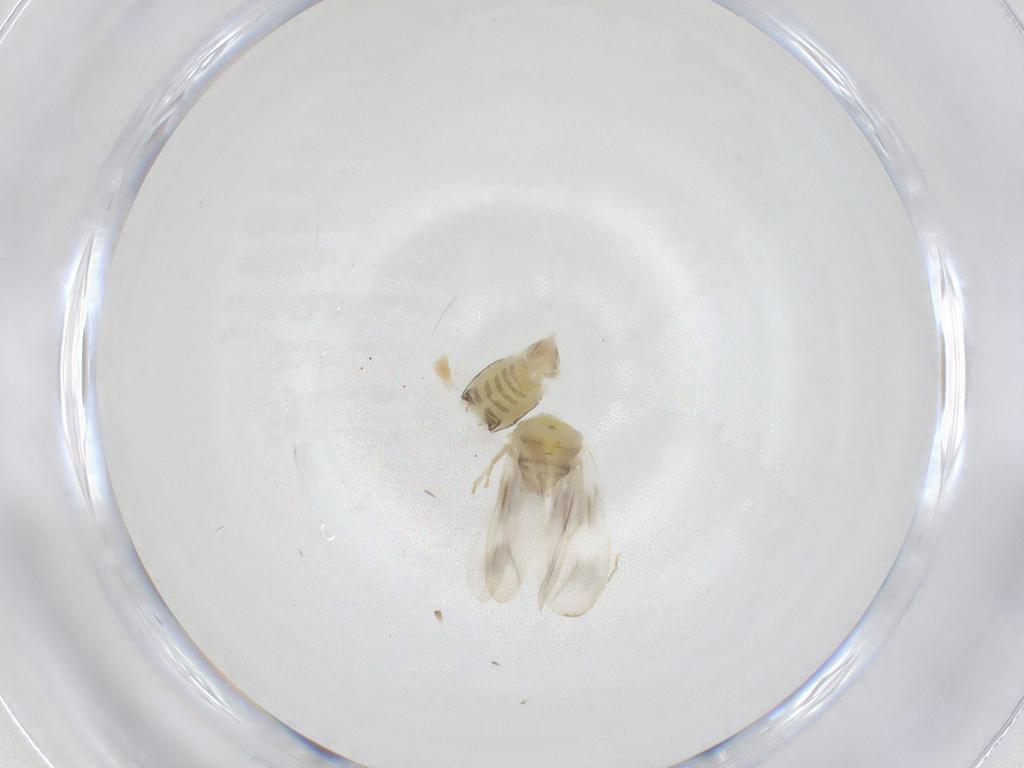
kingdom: Animalia
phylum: Arthropoda
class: Insecta
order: Hemiptera
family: Aleyrodidae
